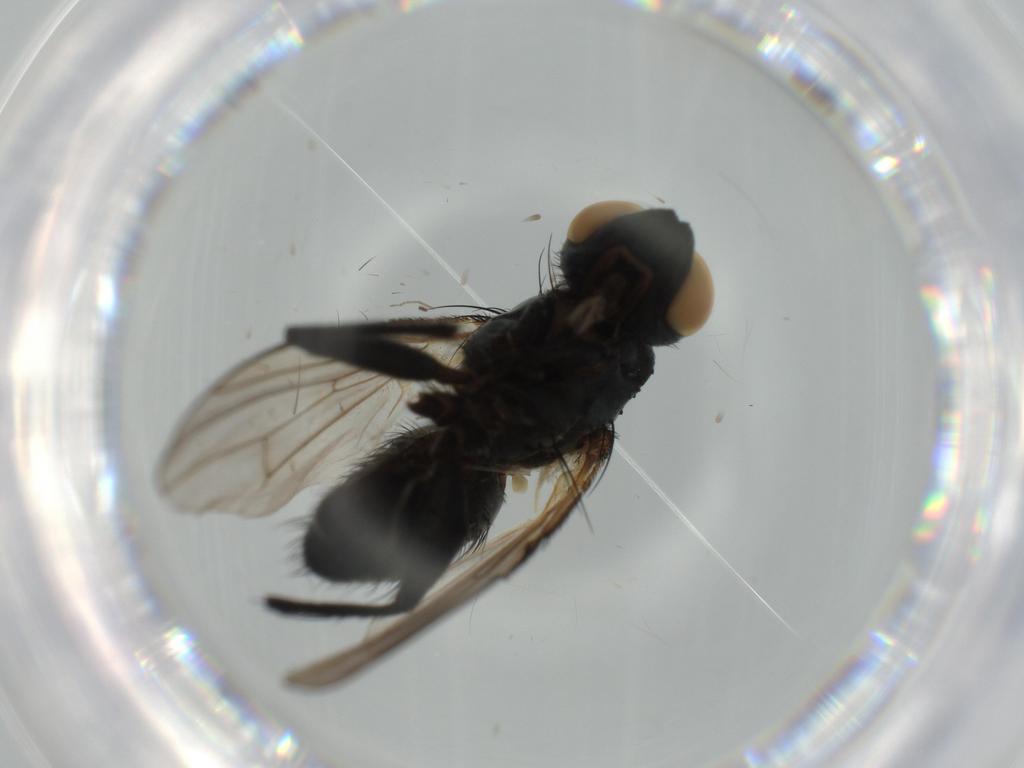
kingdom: Animalia
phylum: Arthropoda
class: Insecta
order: Diptera
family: Muscidae
